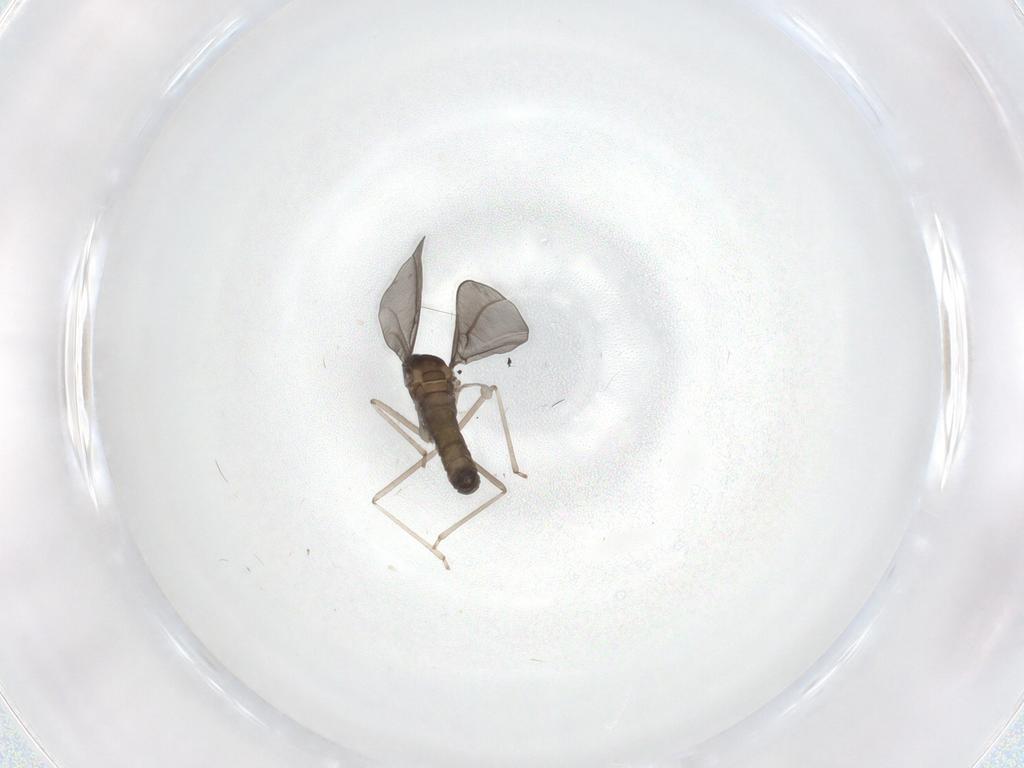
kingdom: Animalia
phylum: Arthropoda
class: Insecta
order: Diptera
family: Cecidomyiidae
